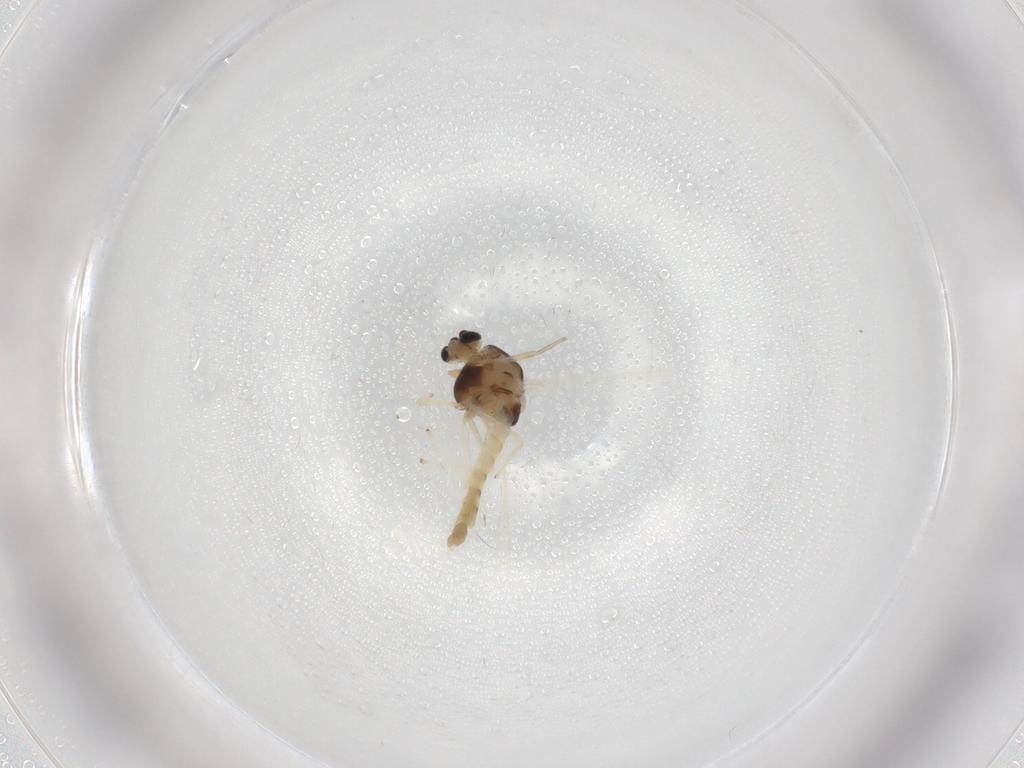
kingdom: Animalia
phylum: Arthropoda
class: Insecta
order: Diptera
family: Chironomidae
